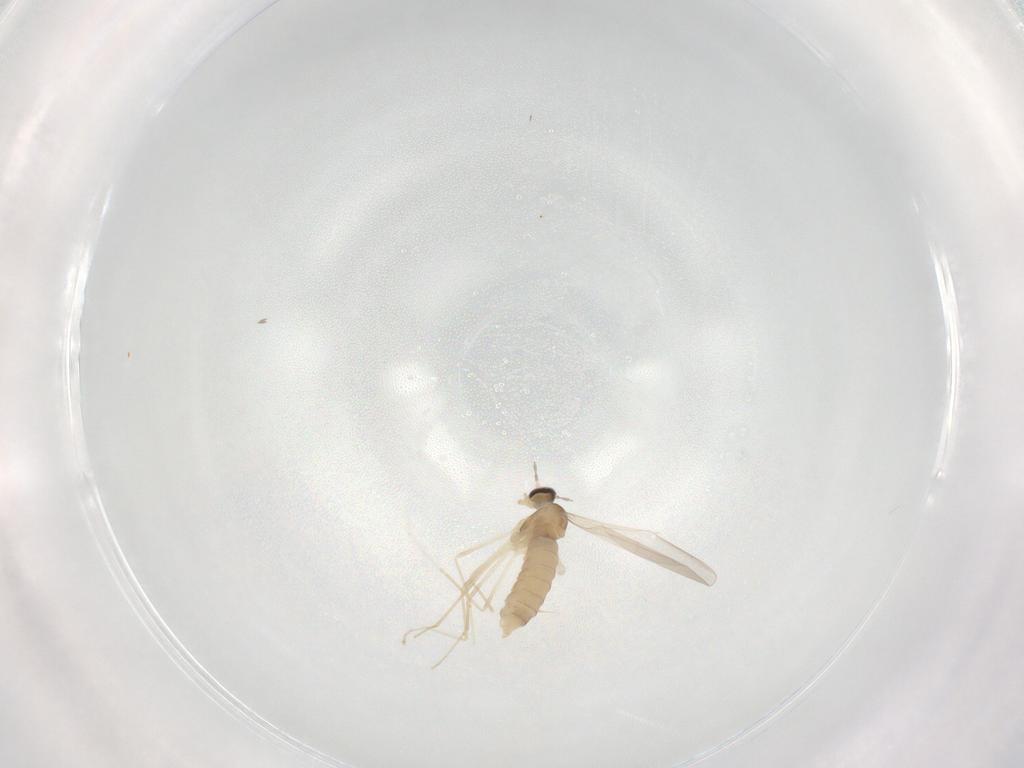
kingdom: Animalia
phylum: Arthropoda
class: Insecta
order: Diptera
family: Cecidomyiidae
